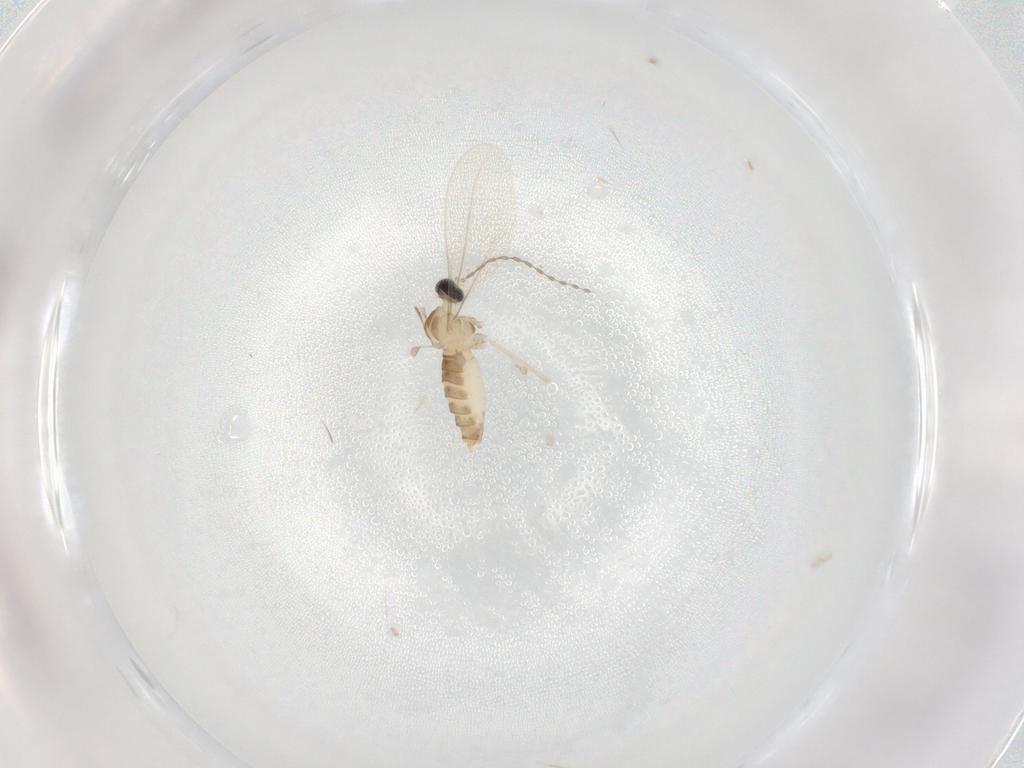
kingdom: Animalia
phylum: Arthropoda
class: Insecta
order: Diptera
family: Cecidomyiidae
